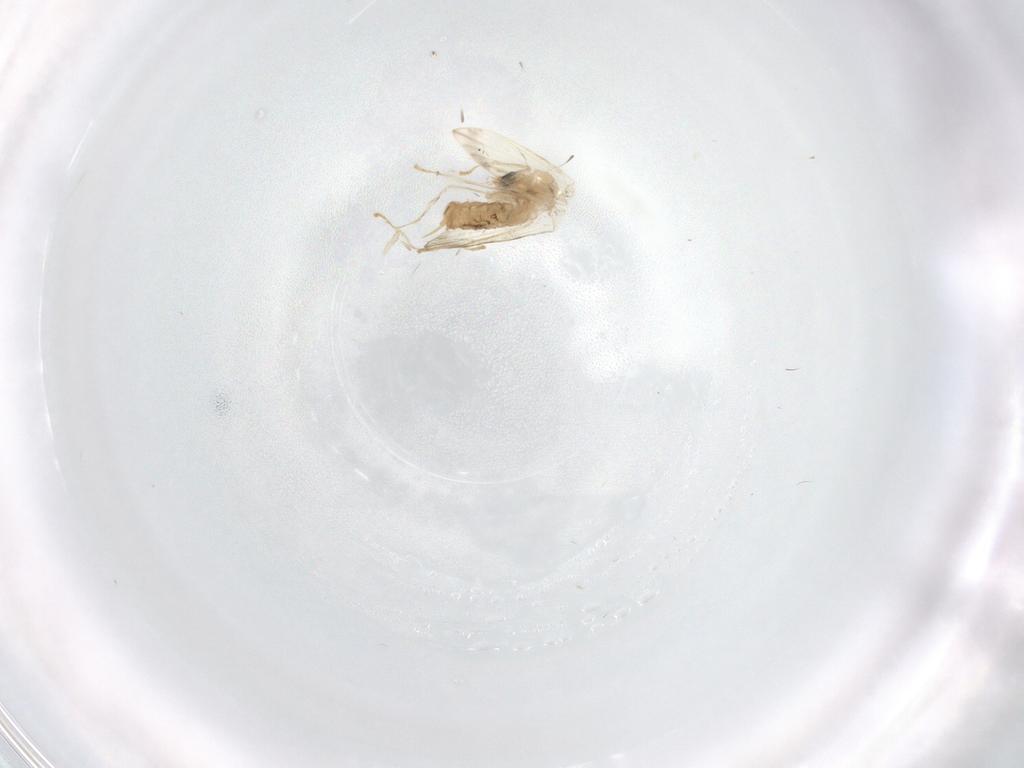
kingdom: Animalia
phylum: Arthropoda
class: Insecta
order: Diptera
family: Psychodidae
